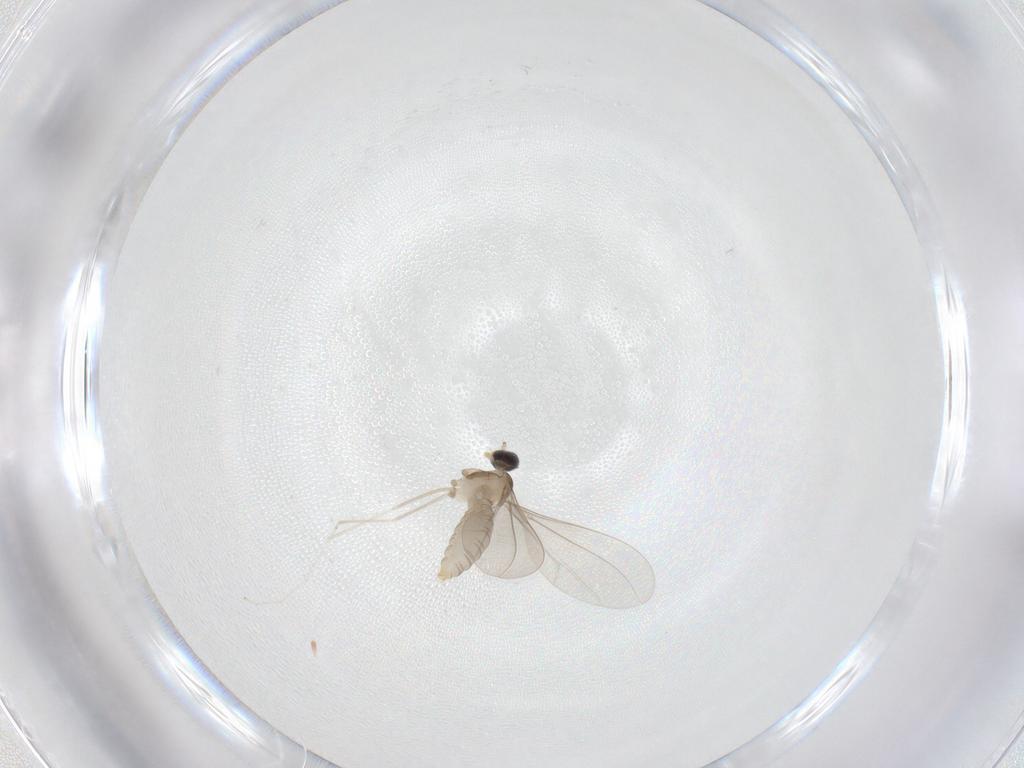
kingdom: Animalia
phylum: Arthropoda
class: Insecta
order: Diptera
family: Cecidomyiidae
